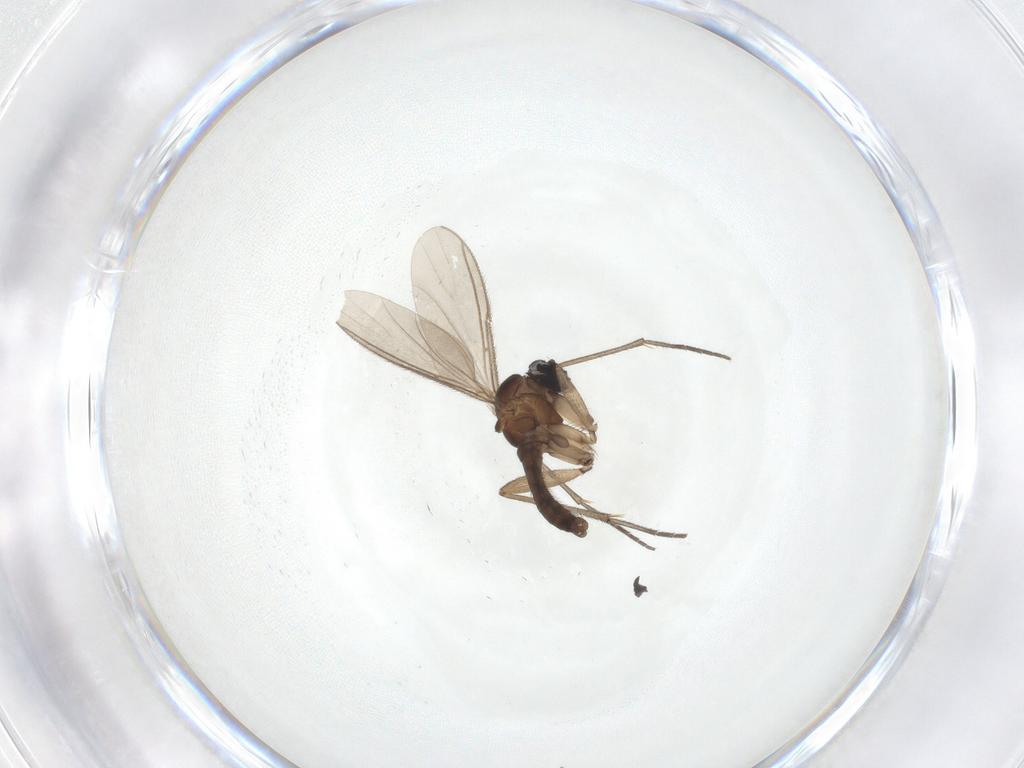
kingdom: Animalia
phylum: Arthropoda
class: Insecta
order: Diptera
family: Sciaridae
